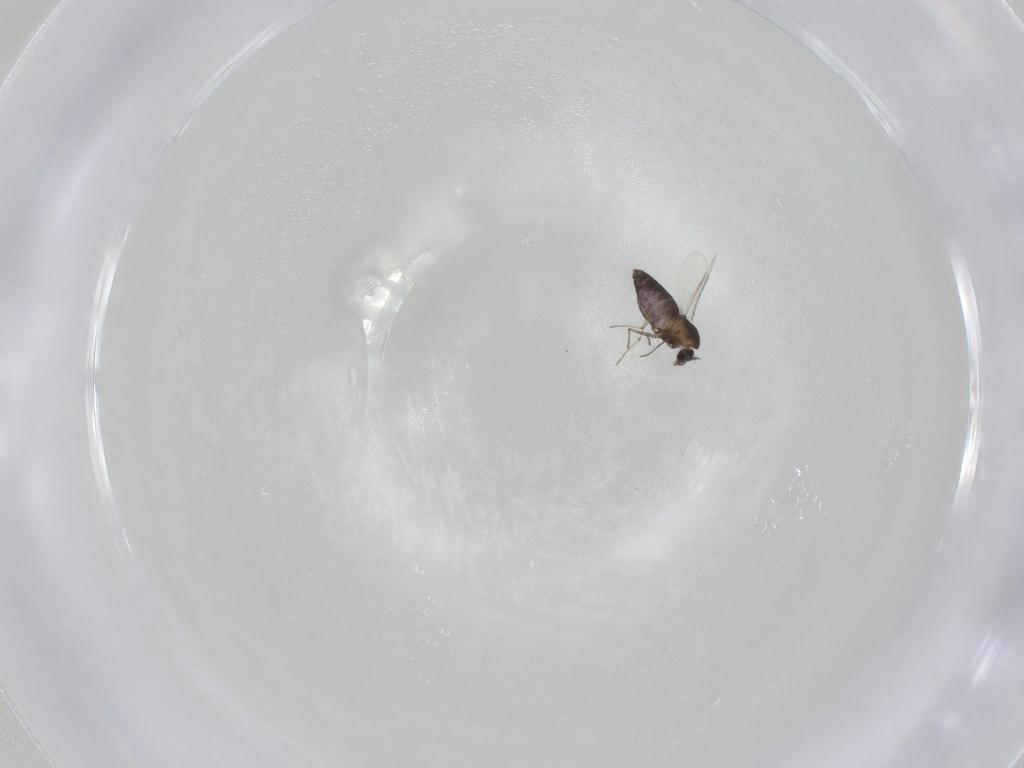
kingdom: Animalia
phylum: Arthropoda
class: Insecta
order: Diptera
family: Chironomidae
